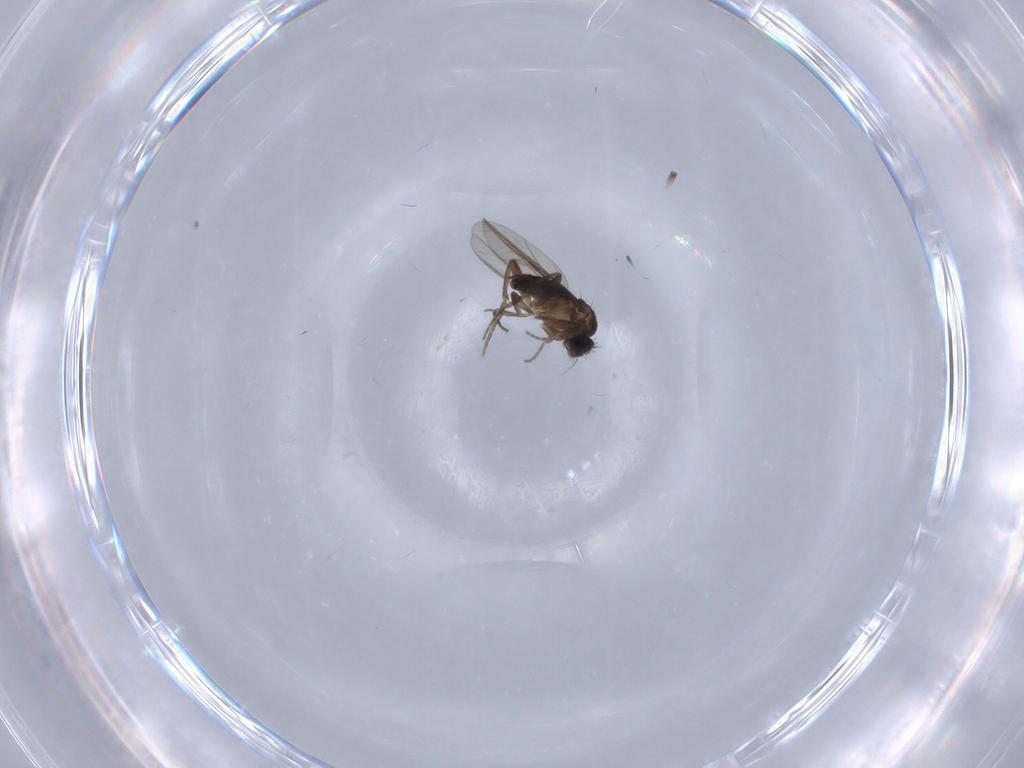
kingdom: Animalia
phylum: Arthropoda
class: Insecta
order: Diptera
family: Phoridae
